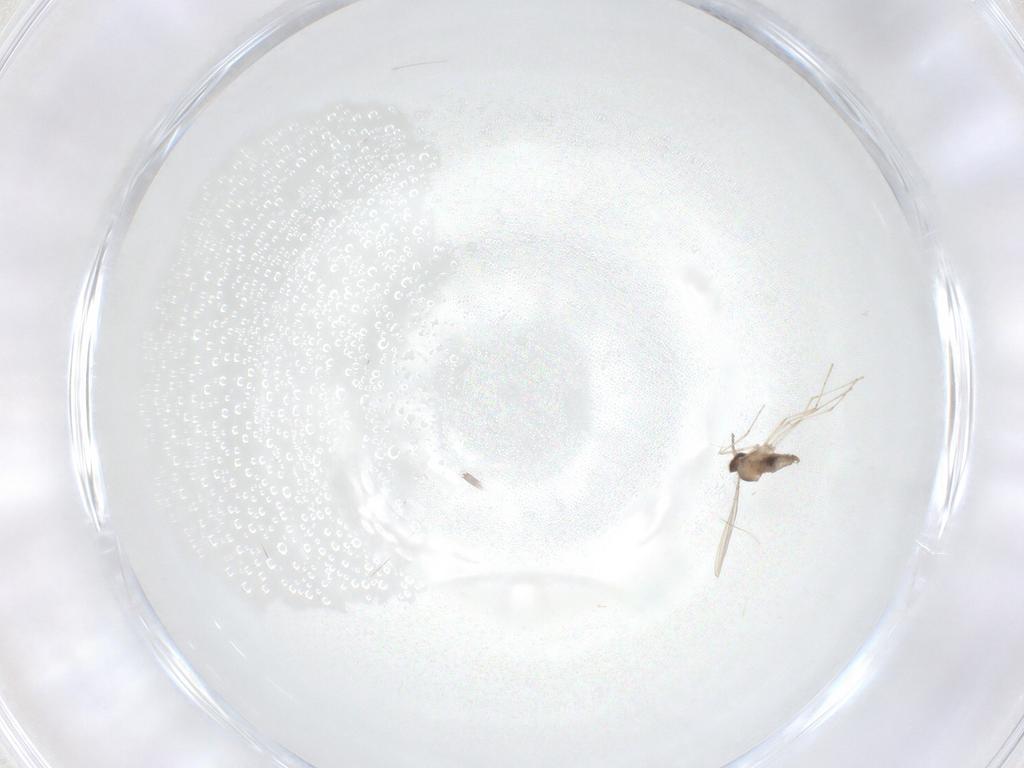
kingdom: Animalia
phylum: Arthropoda
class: Insecta
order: Diptera
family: Cecidomyiidae
